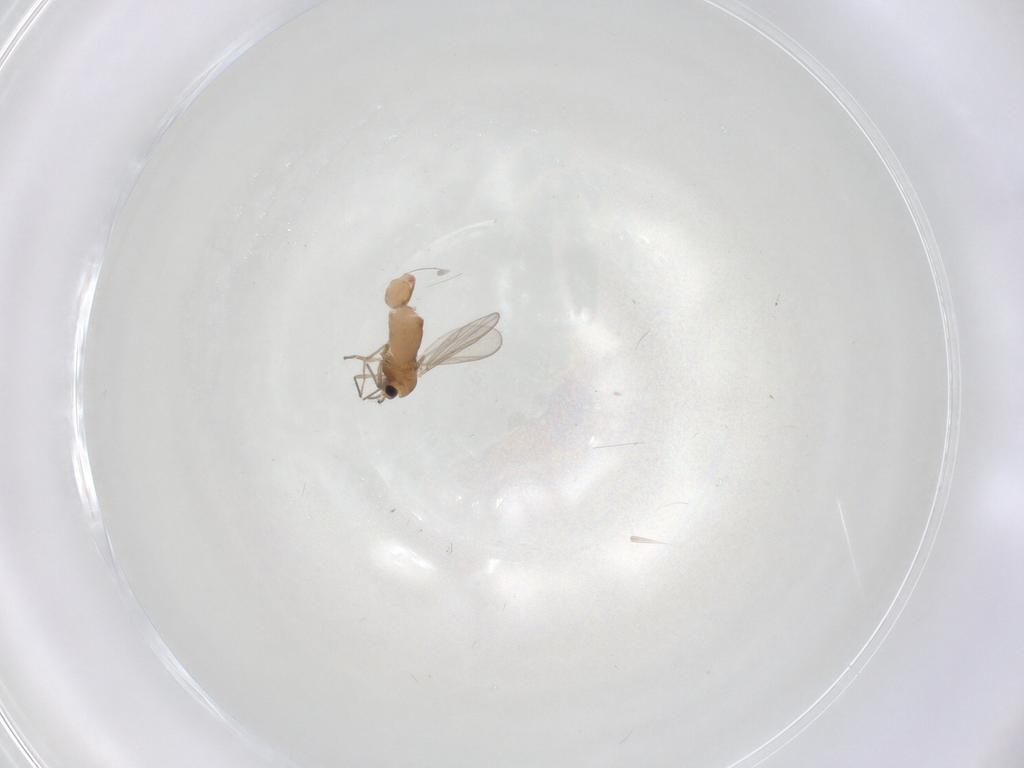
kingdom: Animalia
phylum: Arthropoda
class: Insecta
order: Diptera
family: Chironomidae
